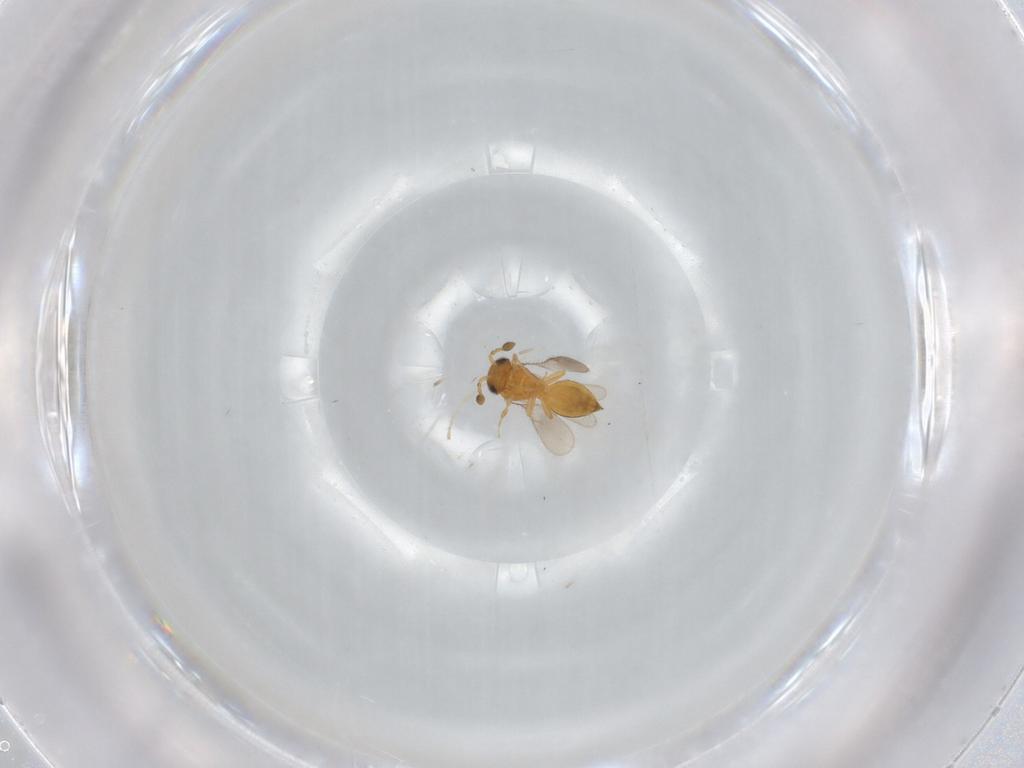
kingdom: Animalia
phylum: Arthropoda
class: Insecta
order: Hymenoptera
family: Scelionidae
